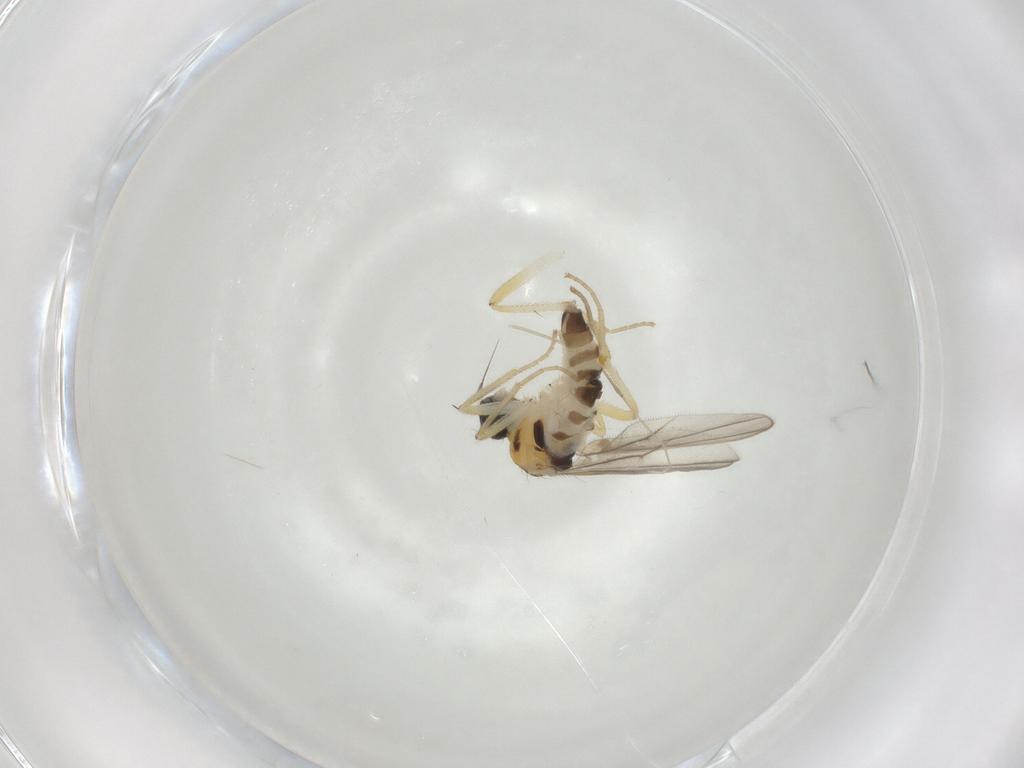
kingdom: Animalia
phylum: Arthropoda
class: Insecta
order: Diptera
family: Hybotidae
